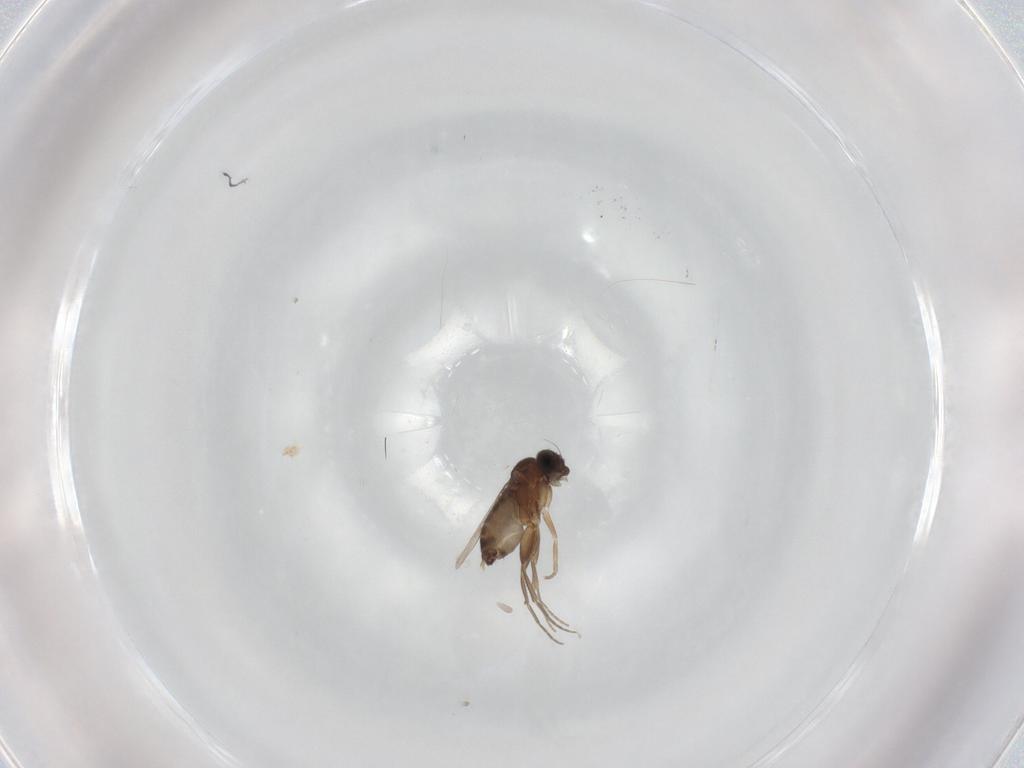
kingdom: Animalia
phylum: Arthropoda
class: Insecta
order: Diptera
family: Phoridae
